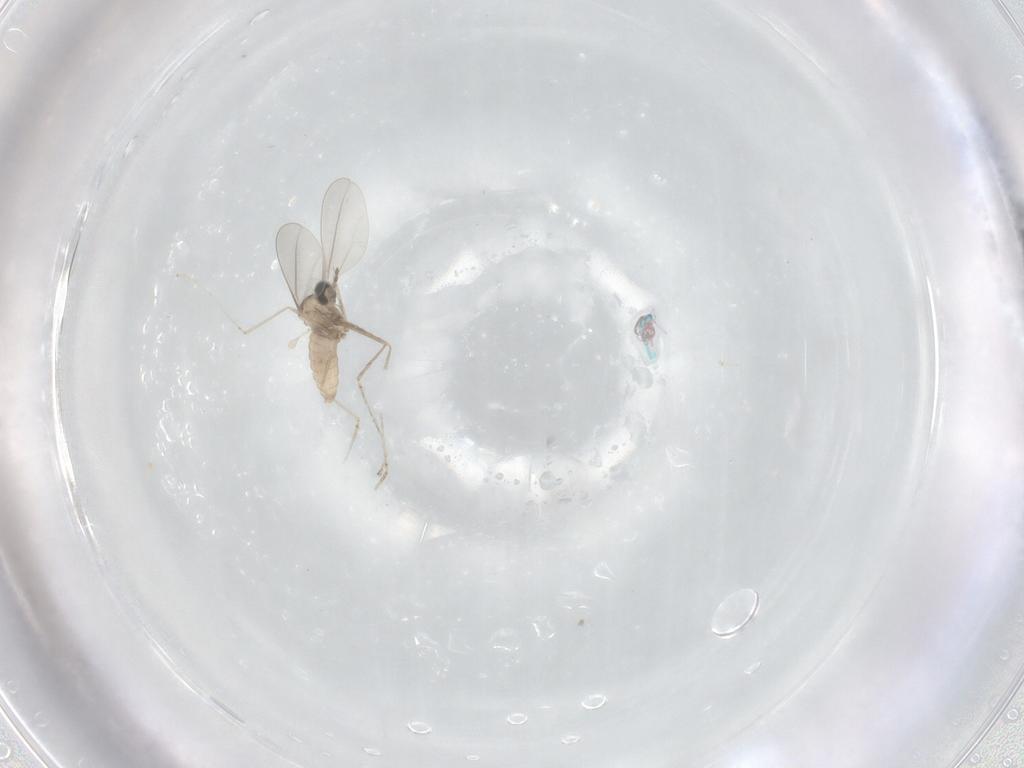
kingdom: Animalia
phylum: Arthropoda
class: Insecta
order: Diptera
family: Cecidomyiidae
